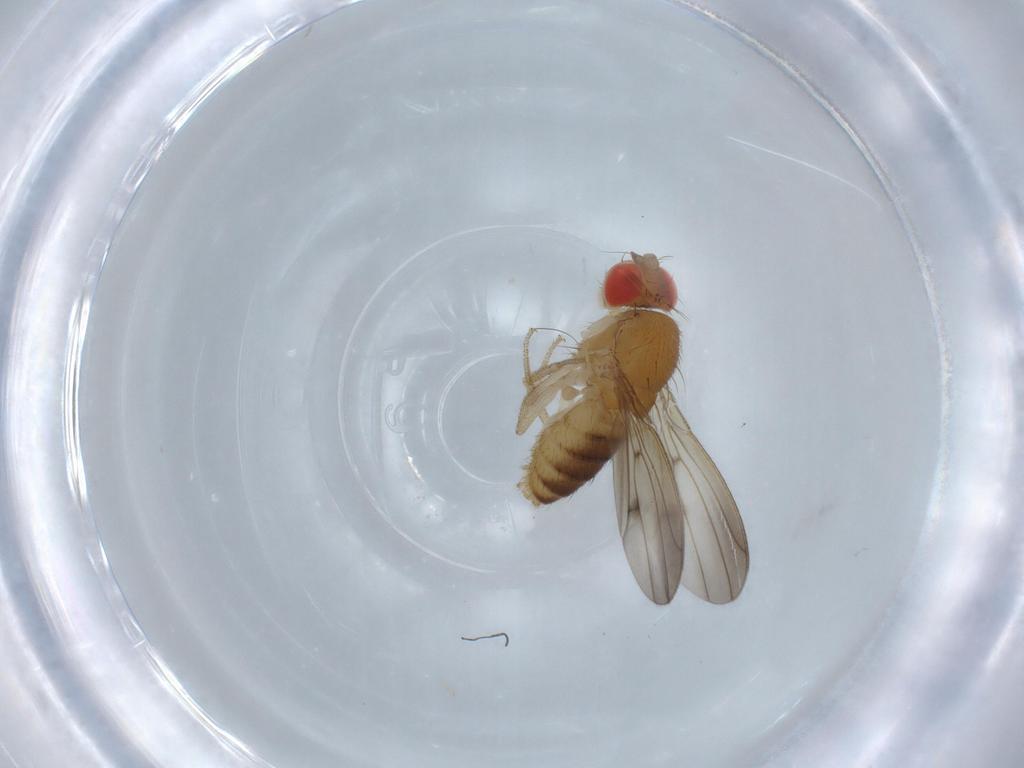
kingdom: Animalia
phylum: Arthropoda
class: Insecta
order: Diptera
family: Drosophilidae
